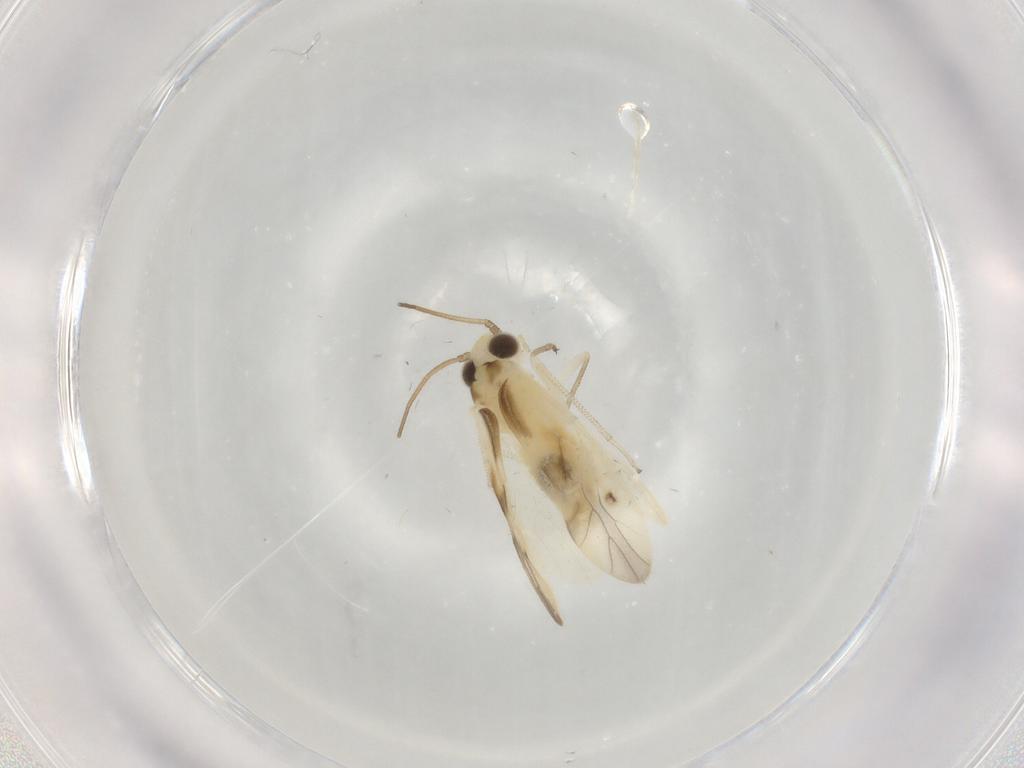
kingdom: Animalia
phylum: Arthropoda
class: Insecta
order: Psocodea
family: Caeciliusidae
